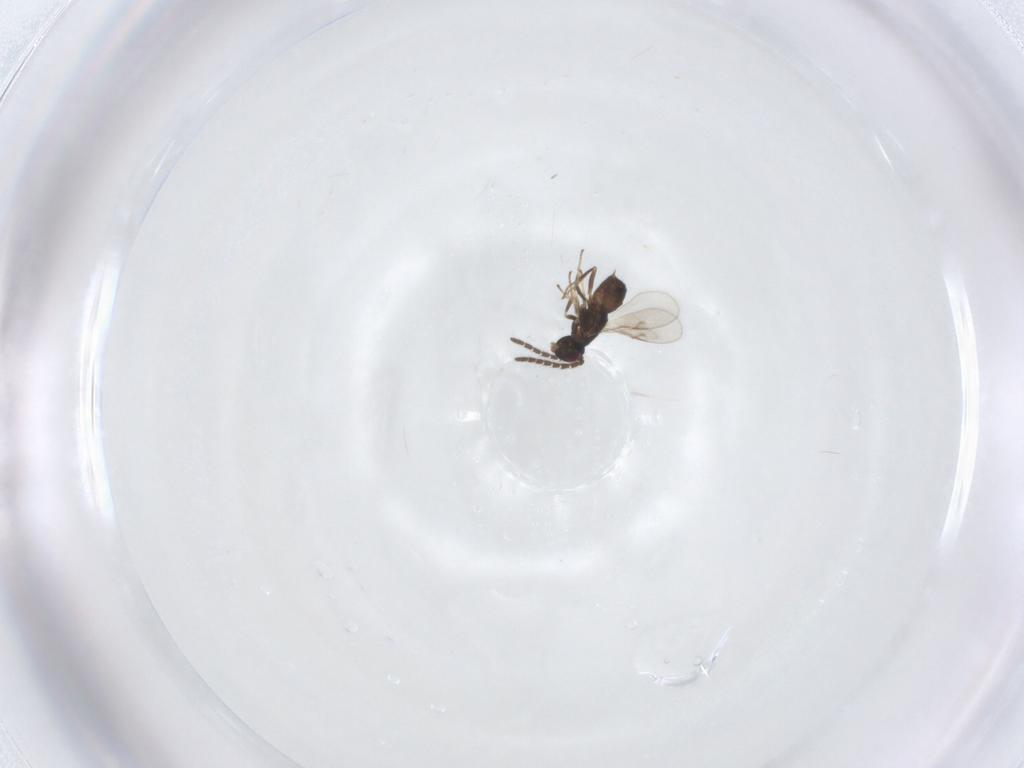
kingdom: Animalia
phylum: Arthropoda
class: Insecta
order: Hymenoptera
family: Encyrtidae
